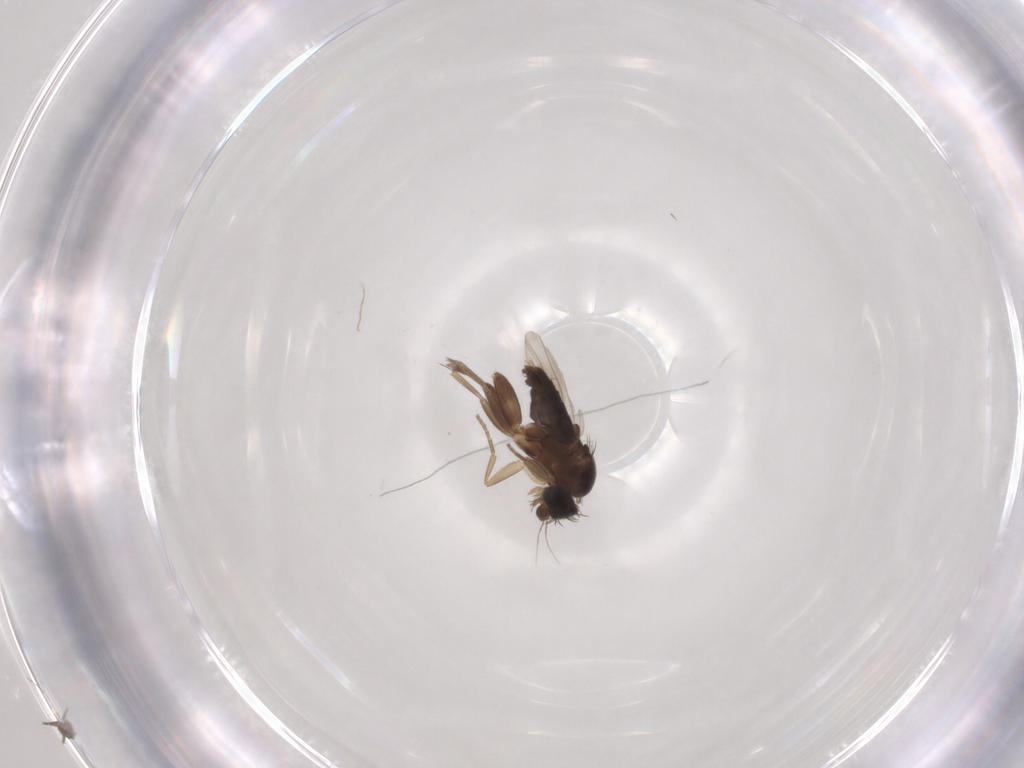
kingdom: Animalia
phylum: Arthropoda
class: Insecta
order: Diptera
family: Phoridae
